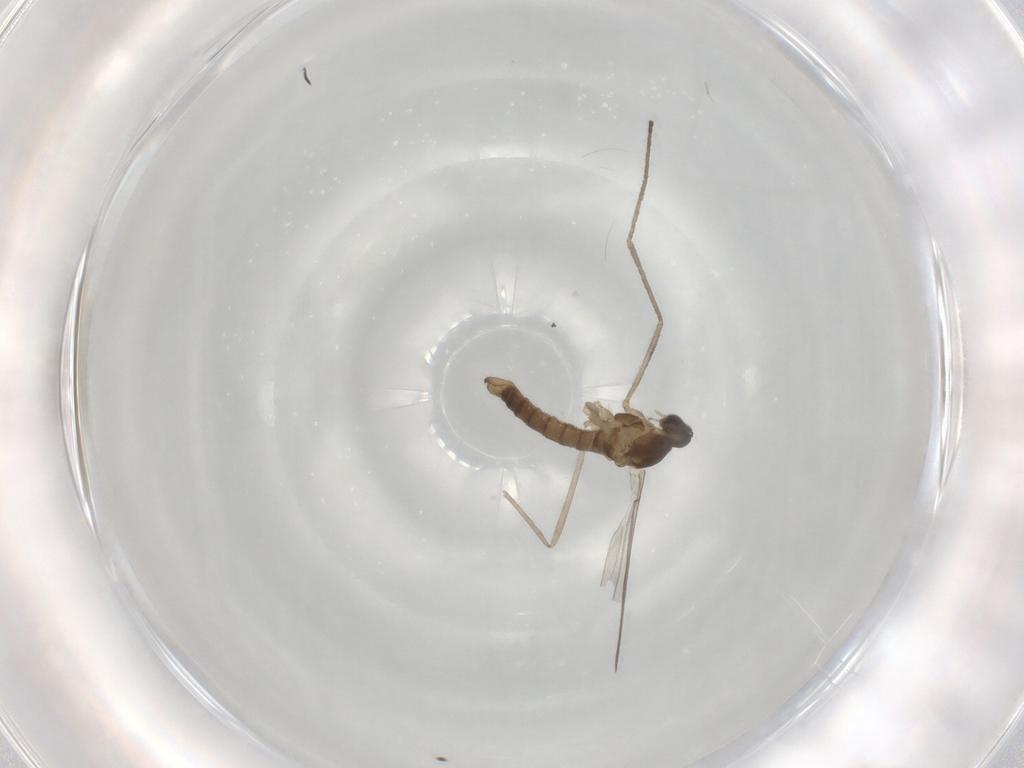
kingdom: Animalia
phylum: Arthropoda
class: Insecta
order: Diptera
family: Cecidomyiidae
